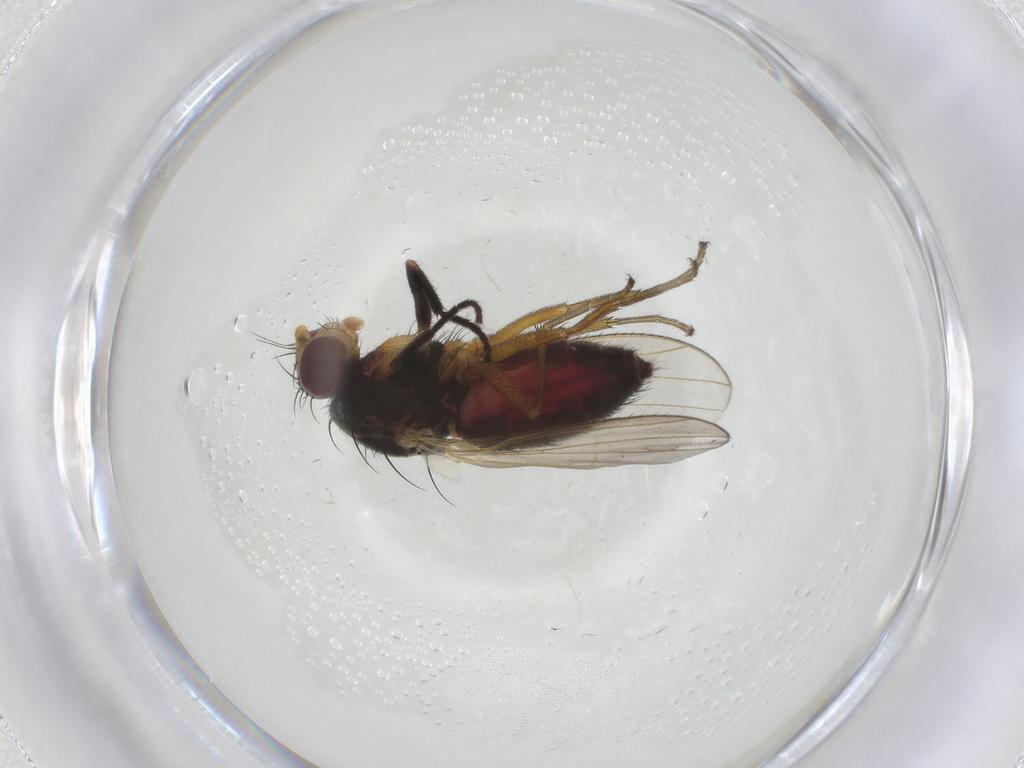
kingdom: Animalia
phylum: Arthropoda
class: Insecta
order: Diptera
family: Heleomyzidae
